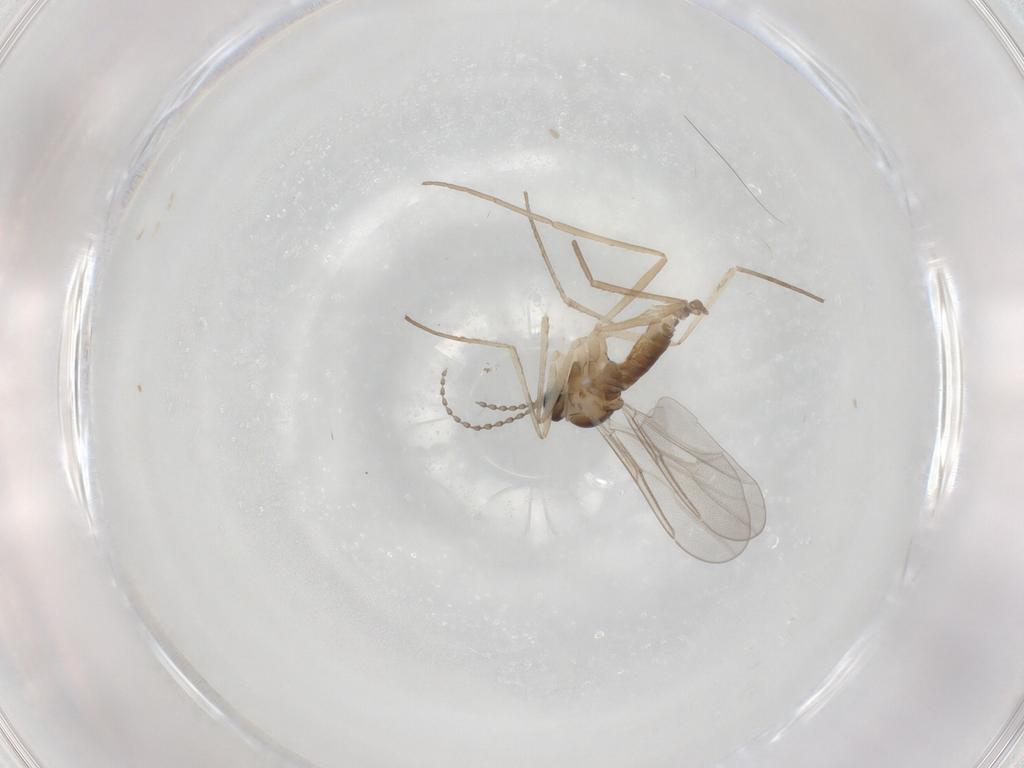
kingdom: Animalia
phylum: Arthropoda
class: Insecta
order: Diptera
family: Cecidomyiidae
